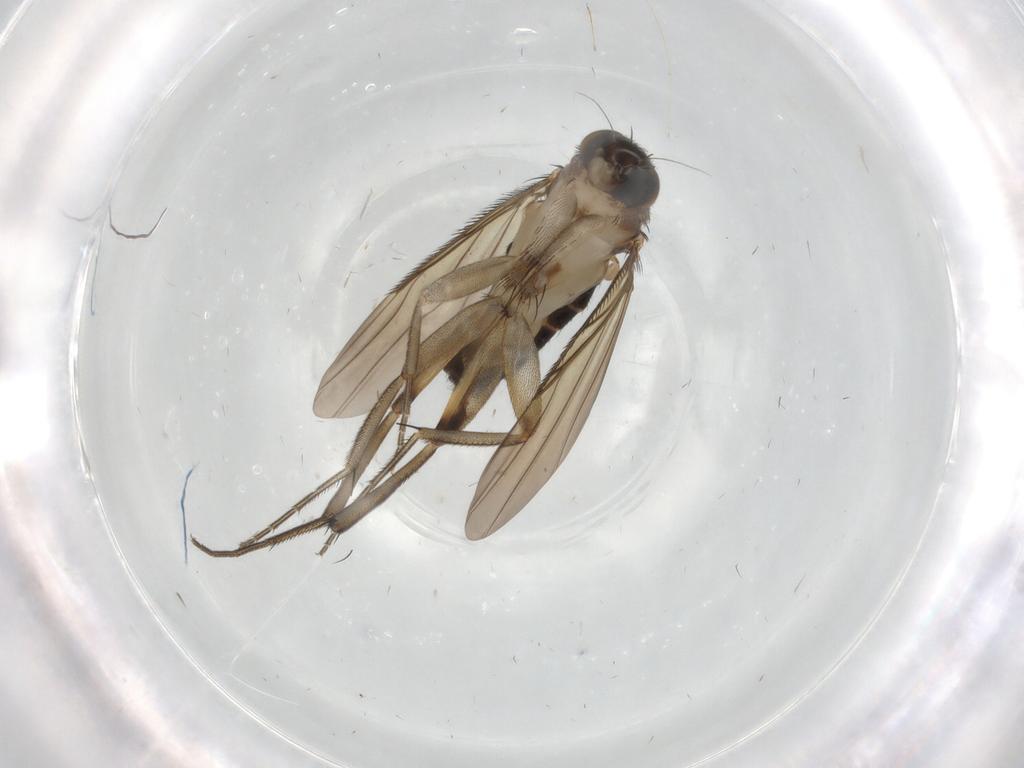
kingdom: Animalia
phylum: Arthropoda
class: Insecta
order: Diptera
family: Phoridae
